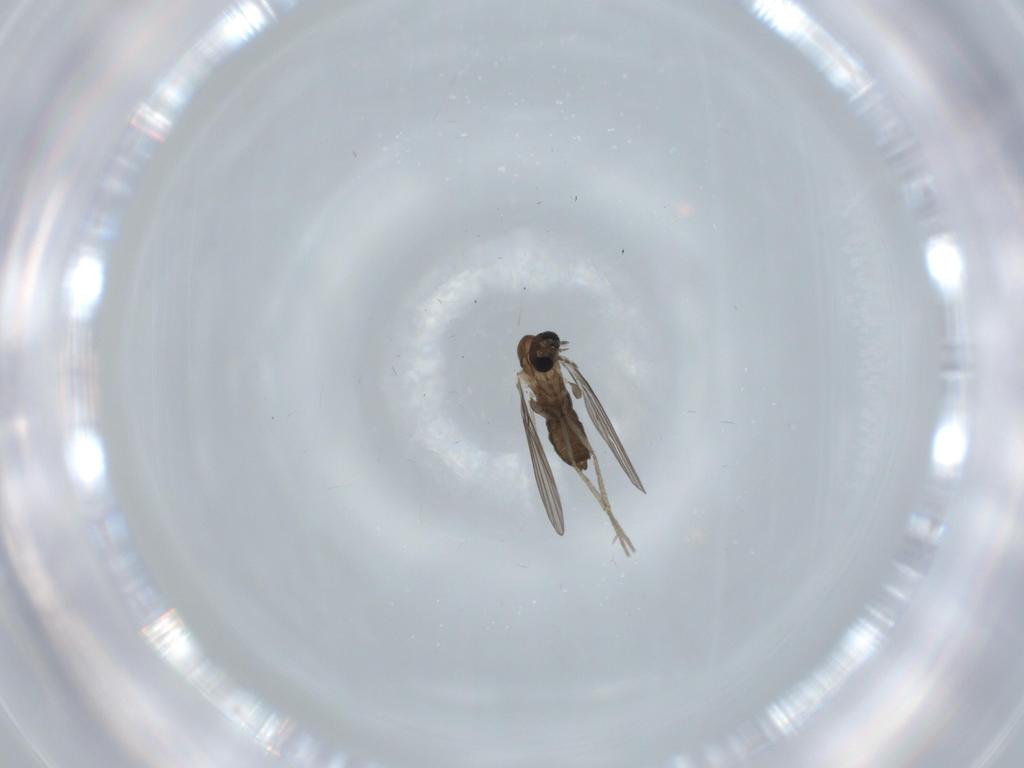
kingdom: Animalia
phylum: Arthropoda
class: Insecta
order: Diptera
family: Psychodidae
